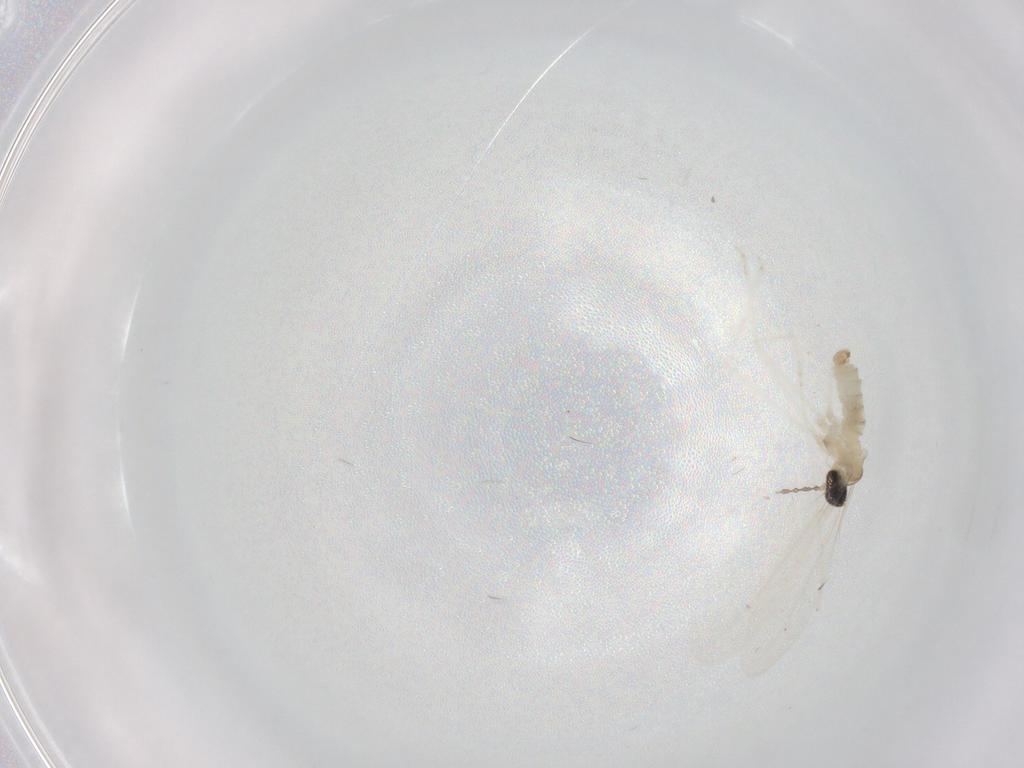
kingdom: Animalia
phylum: Arthropoda
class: Insecta
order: Diptera
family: Cecidomyiidae
